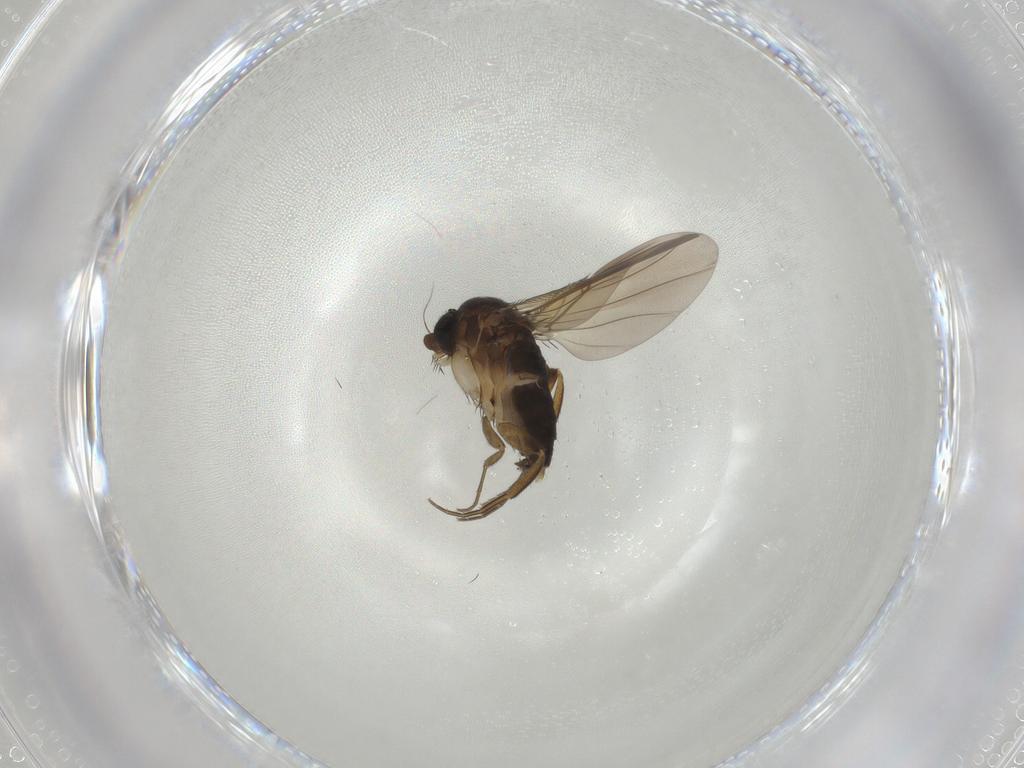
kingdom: Animalia
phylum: Arthropoda
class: Insecta
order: Diptera
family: Phoridae
